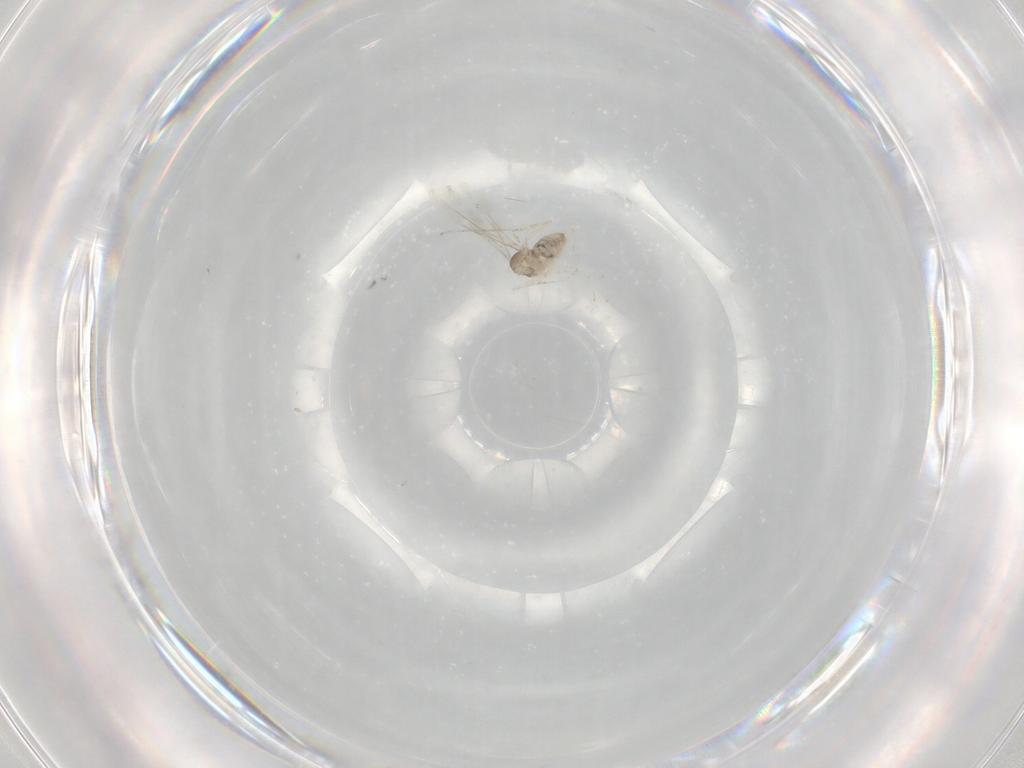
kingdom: Animalia
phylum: Arthropoda
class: Insecta
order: Diptera
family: Cecidomyiidae
